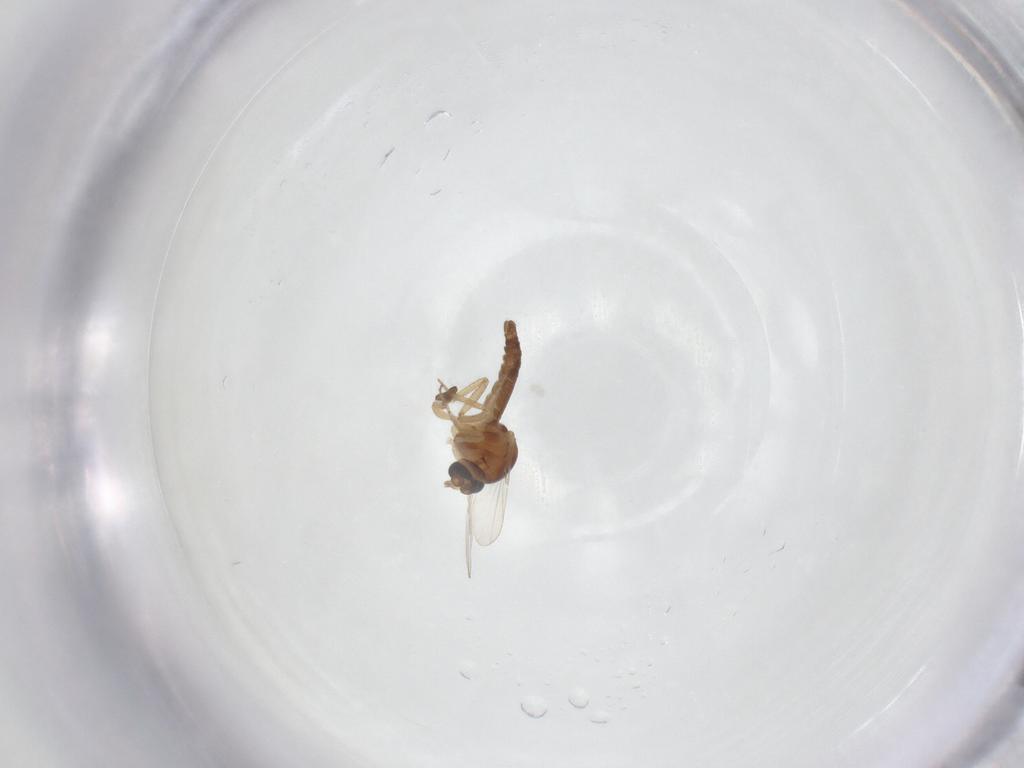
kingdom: Animalia
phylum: Arthropoda
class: Insecta
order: Diptera
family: Ceratopogonidae
